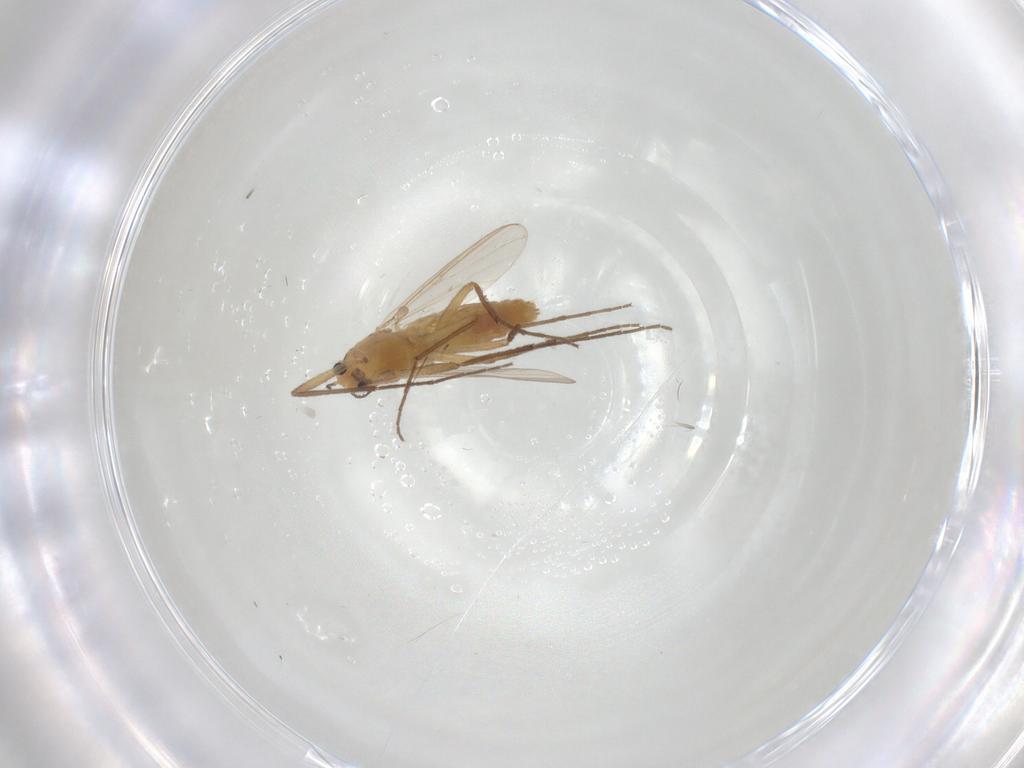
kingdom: Animalia
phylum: Arthropoda
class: Insecta
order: Diptera
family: Chironomidae
